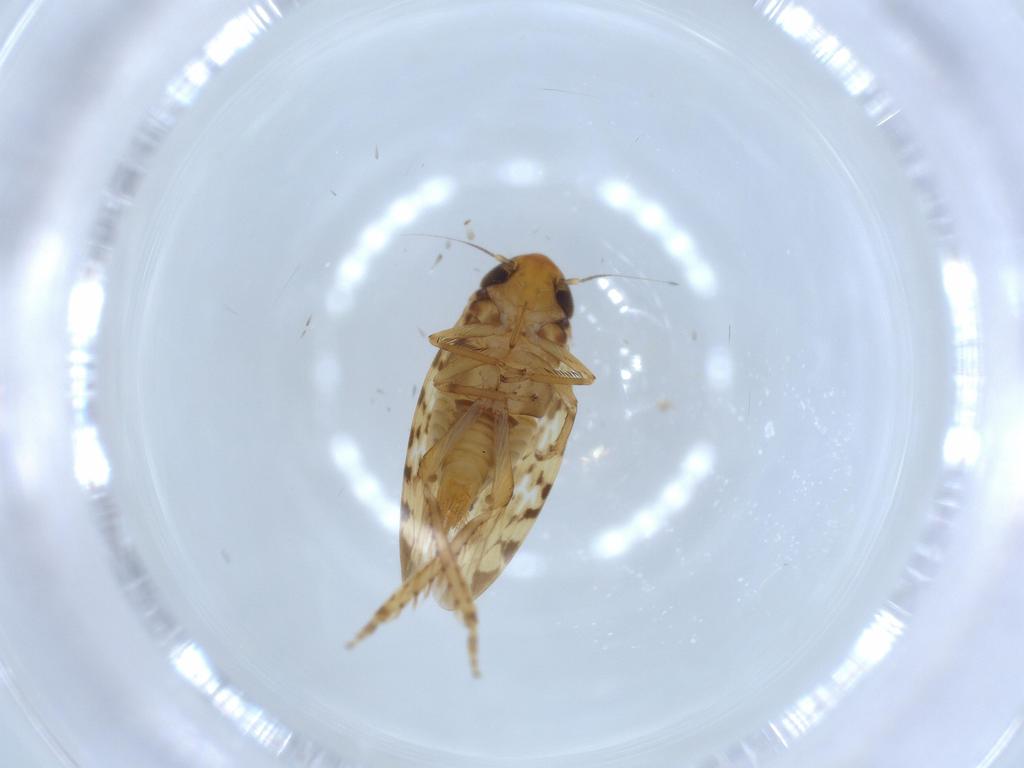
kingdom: Animalia
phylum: Arthropoda
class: Insecta
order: Hemiptera
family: Cicadellidae
